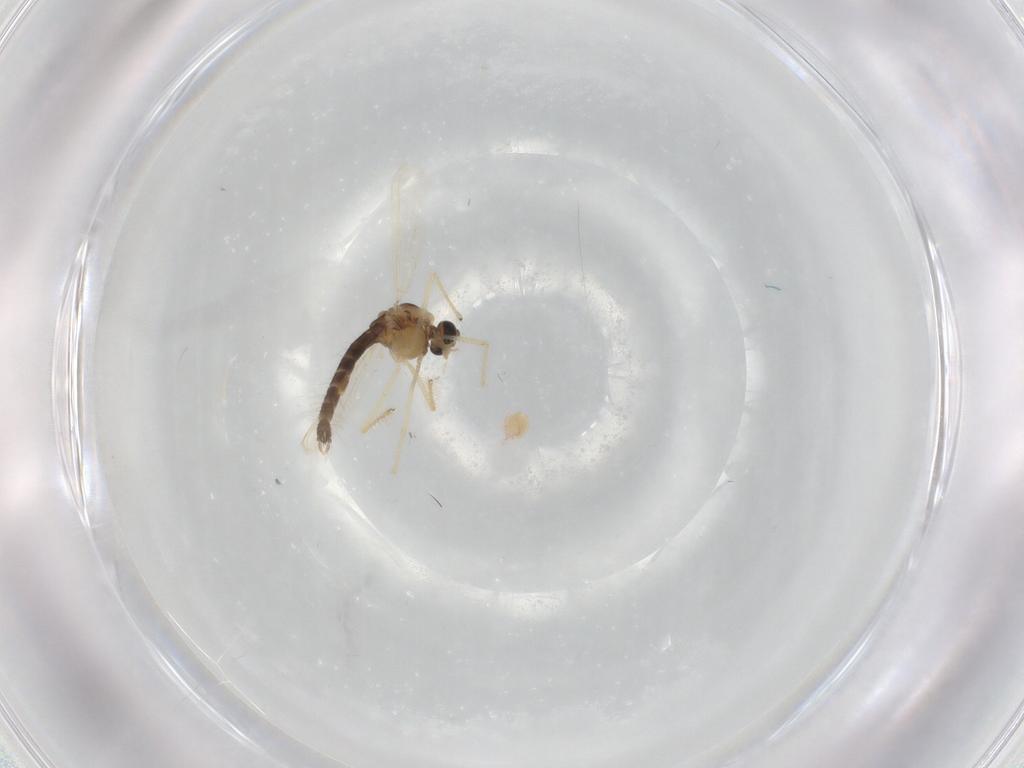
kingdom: Animalia
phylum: Arthropoda
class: Insecta
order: Diptera
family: Chironomidae
